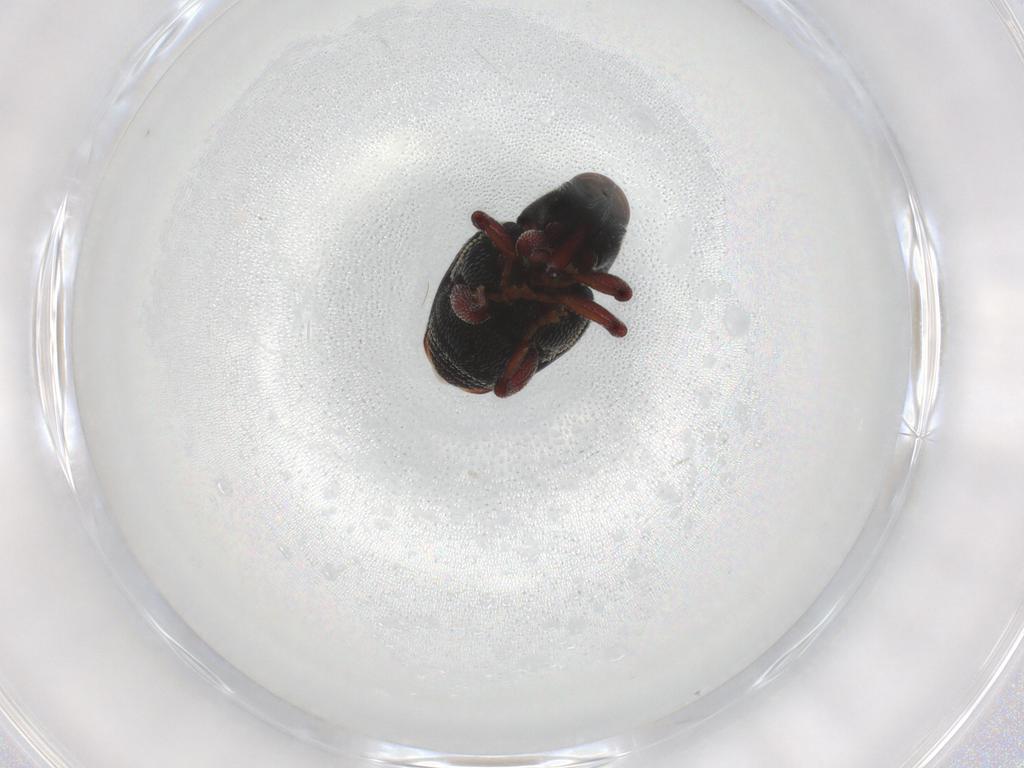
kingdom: Animalia
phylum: Arthropoda
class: Insecta
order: Coleoptera
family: Curculionidae
